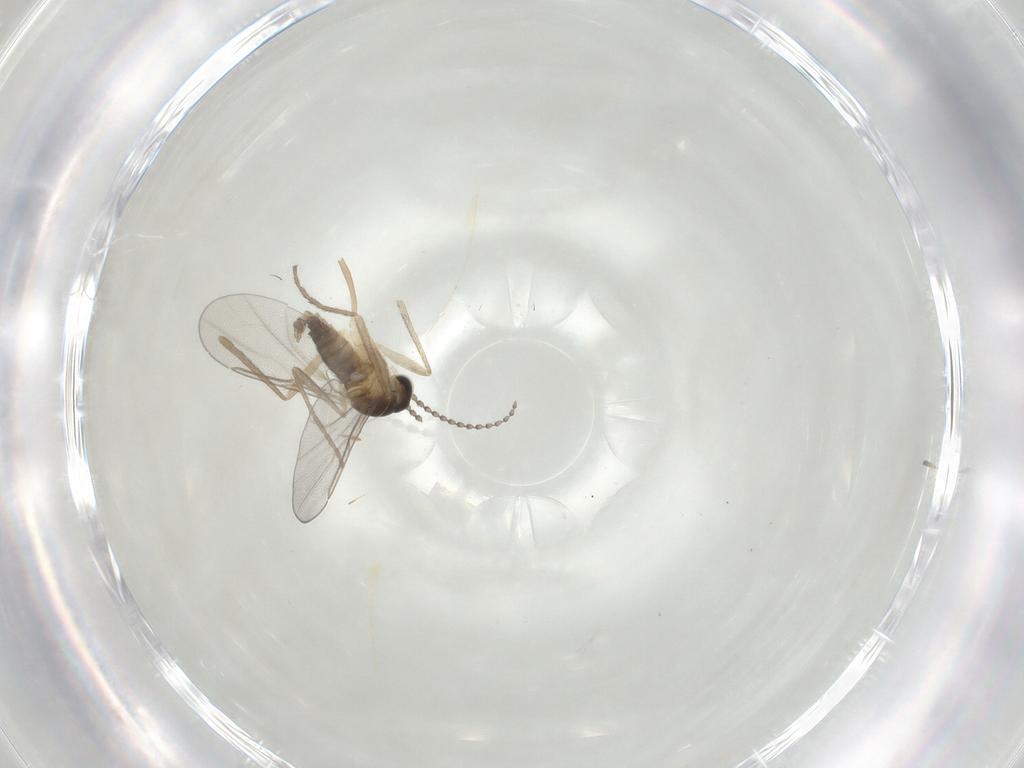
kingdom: Animalia
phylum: Arthropoda
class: Insecta
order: Diptera
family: Cecidomyiidae
